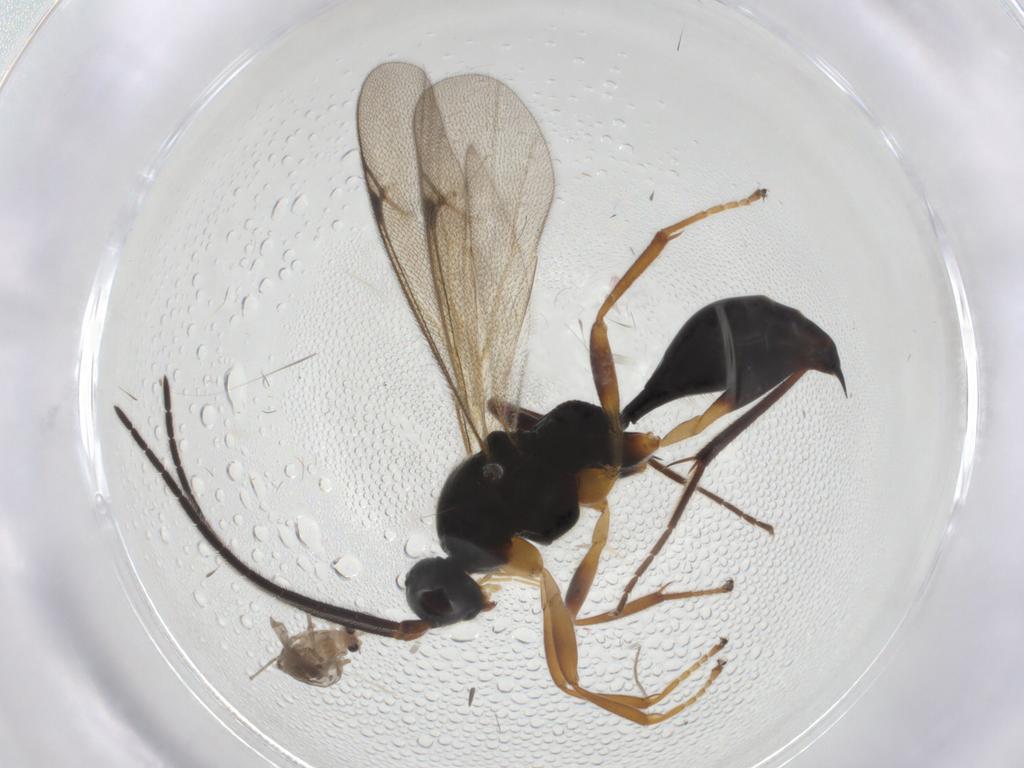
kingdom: Animalia
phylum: Arthropoda
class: Insecta
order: Diptera
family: Chironomidae
